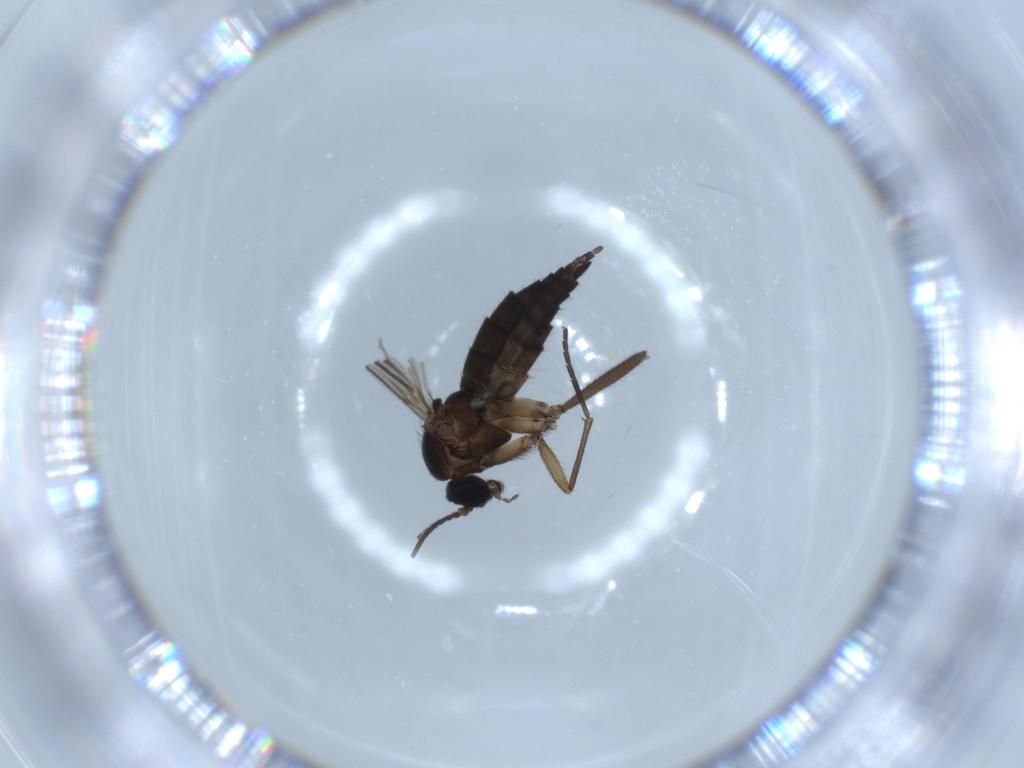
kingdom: Animalia
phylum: Arthropoda
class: Insecta
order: Diptera
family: Sciaridae
